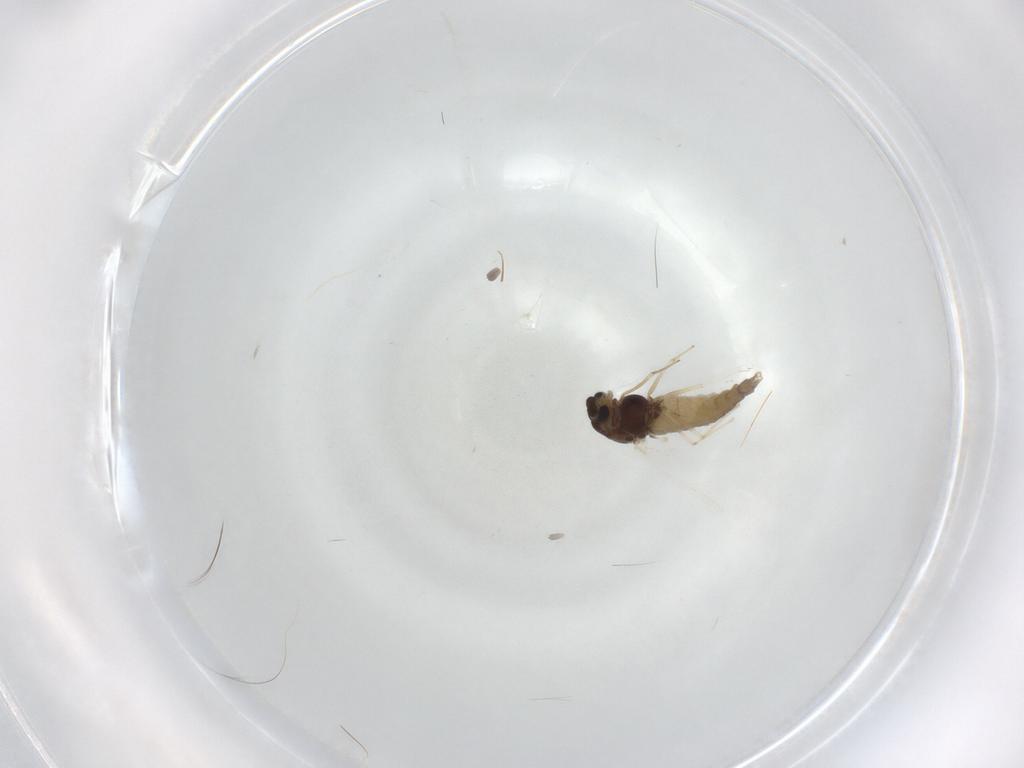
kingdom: Animalia
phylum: Arthropoda
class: Insecta
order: Diptera
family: Chironomidae
